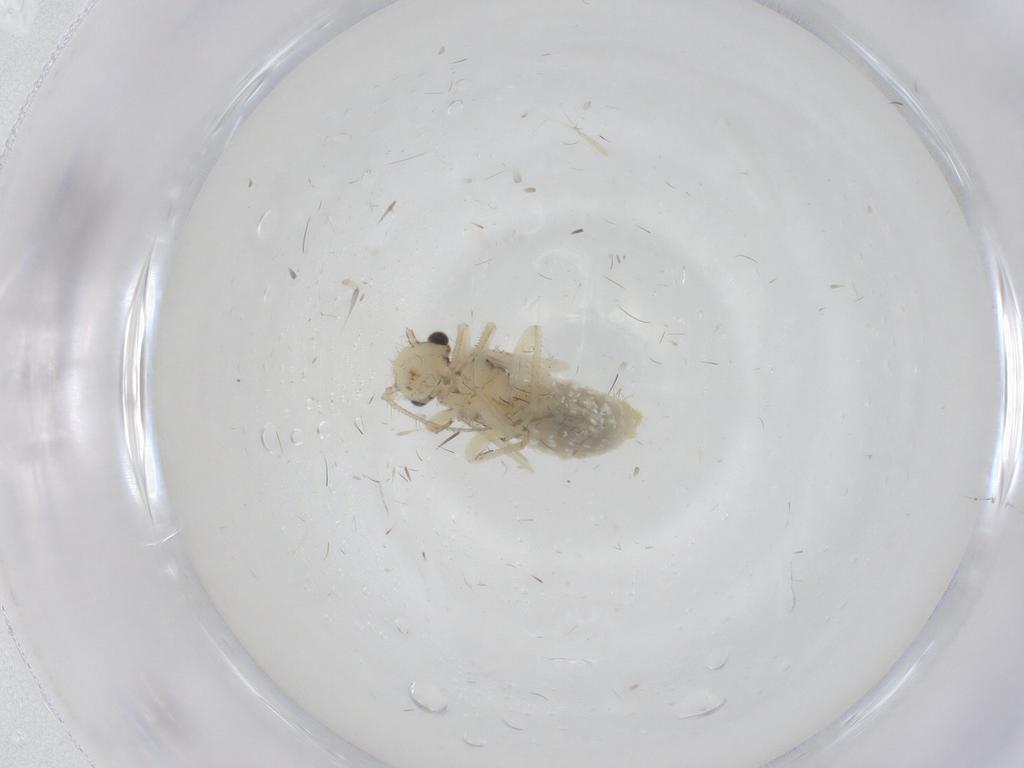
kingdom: Animalia
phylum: Arthropoda
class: Insecta
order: Psocodea
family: Pseudocaeciliidae
